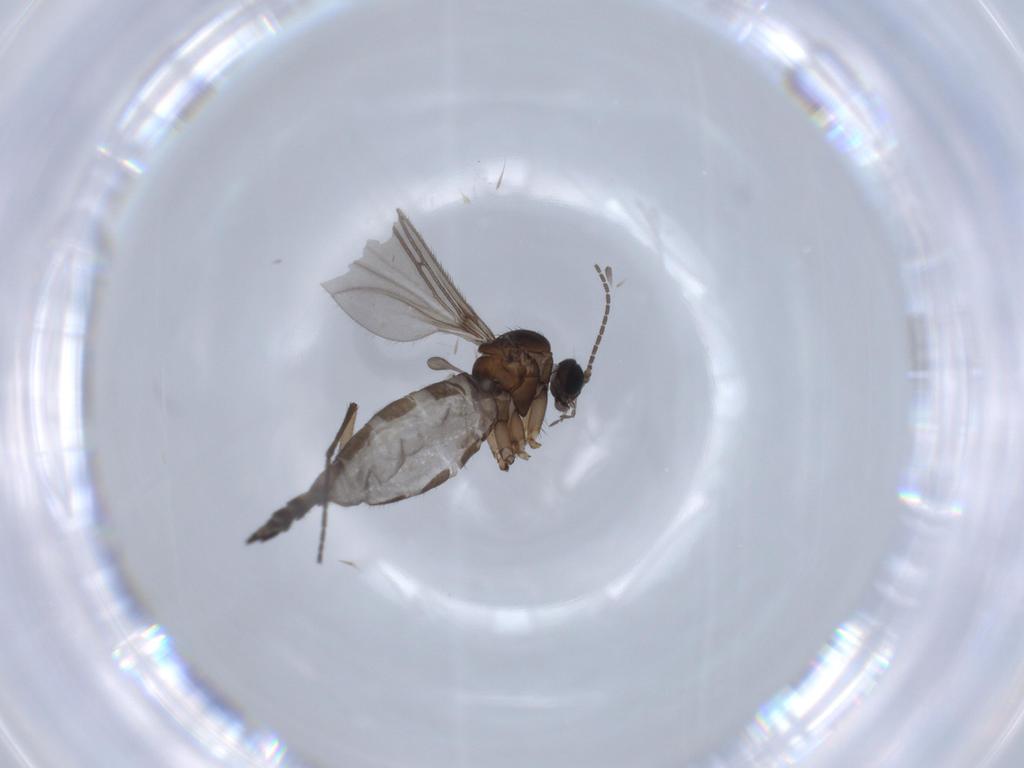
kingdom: Animalia
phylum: Arthropoda
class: Insecta
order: Diptera
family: Sciaridae
